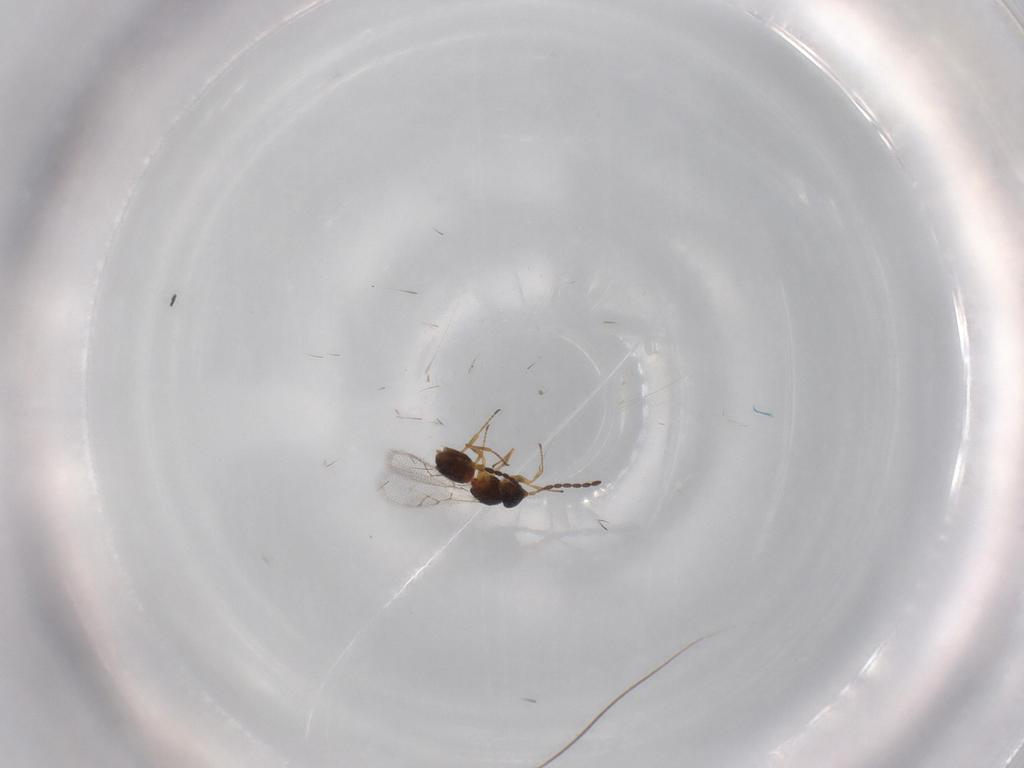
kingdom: Animalia
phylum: Arthropoda
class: Insecta
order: Hymenoptera
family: Figitidae
